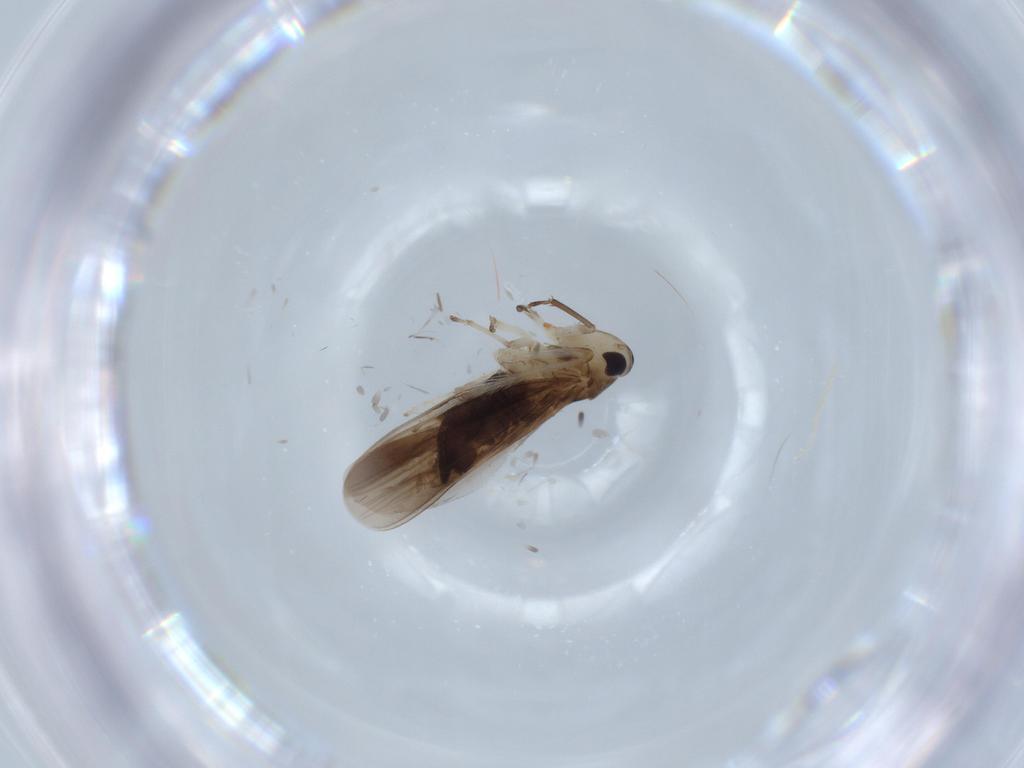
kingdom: Animalia
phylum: Arthropoda
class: Insecta
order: Hemiptera
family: Cicadellidae
